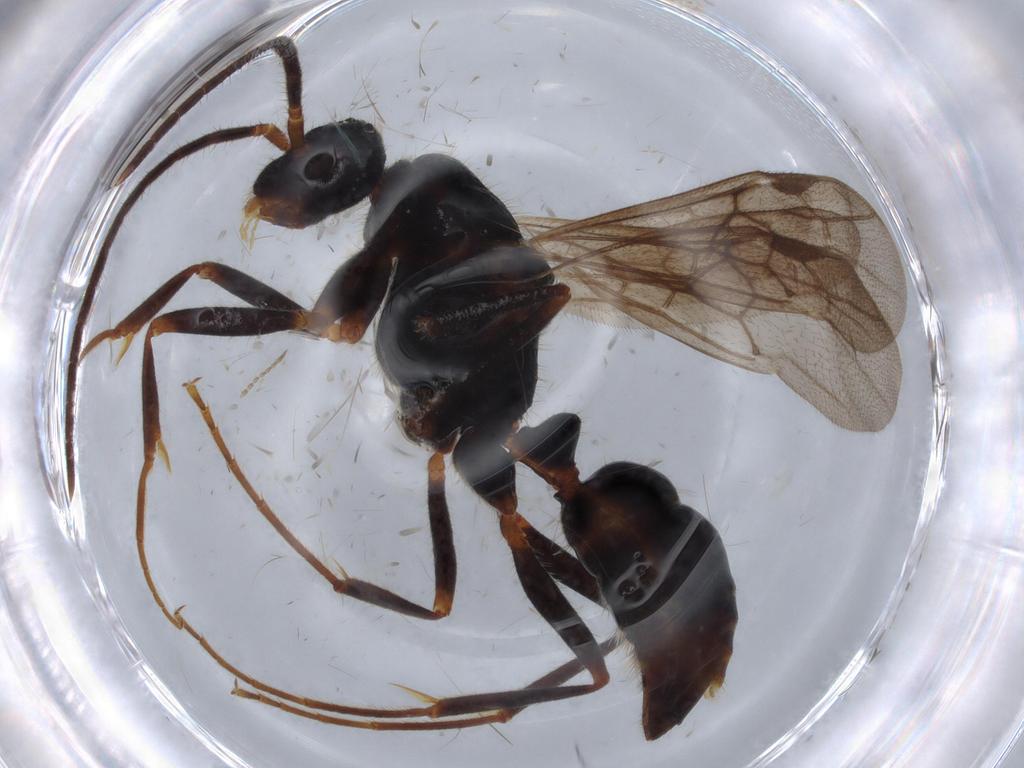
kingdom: Animalia
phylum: Arthropoda
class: Insecta
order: Hymenoptera
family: Formicidae
